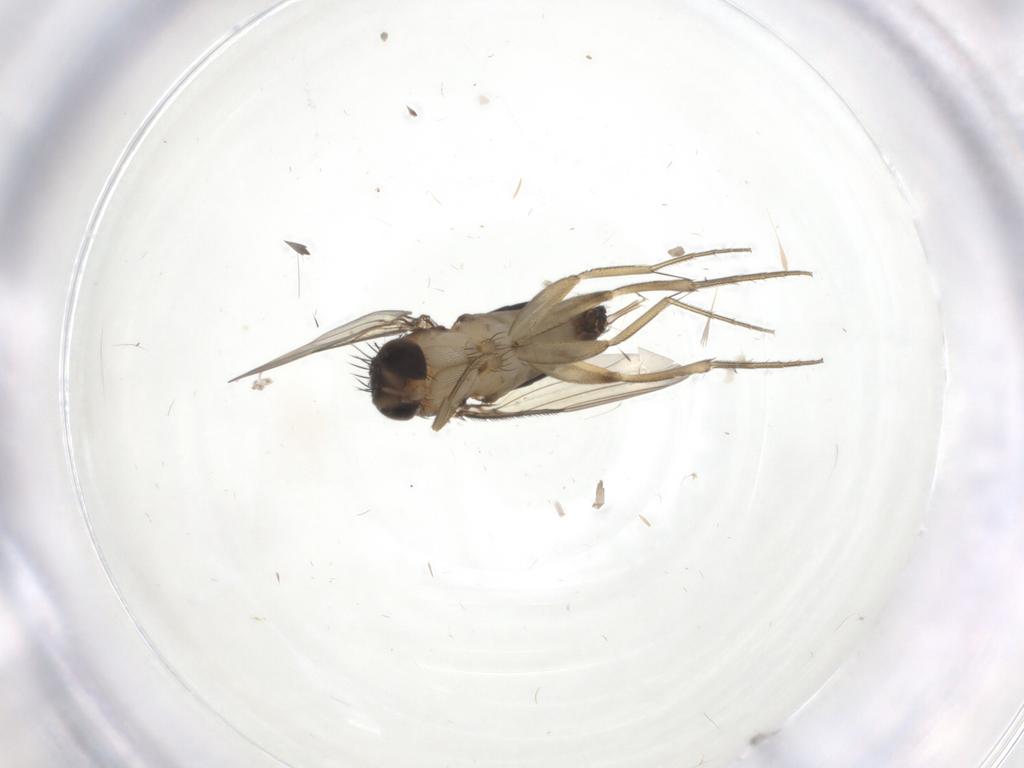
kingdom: Animalia
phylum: Arthropoda
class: Insecta
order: Diptera
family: Phoridae
